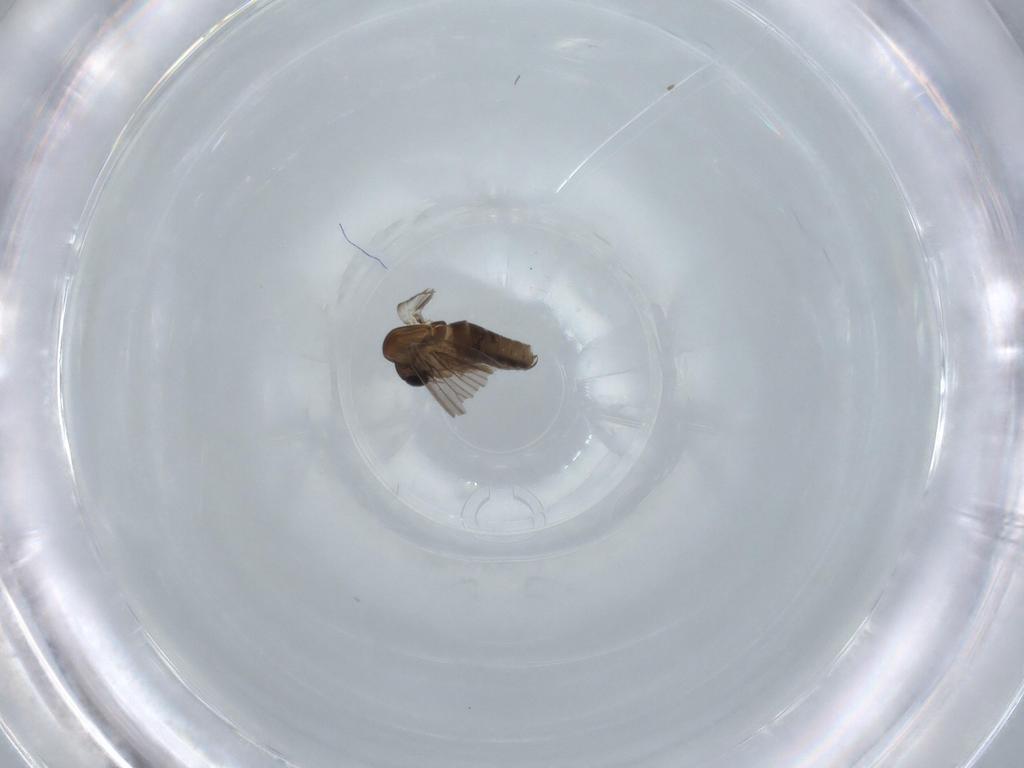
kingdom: Animalia
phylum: Arthropoda
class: Insecta
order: Diptera
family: Psychodidae
